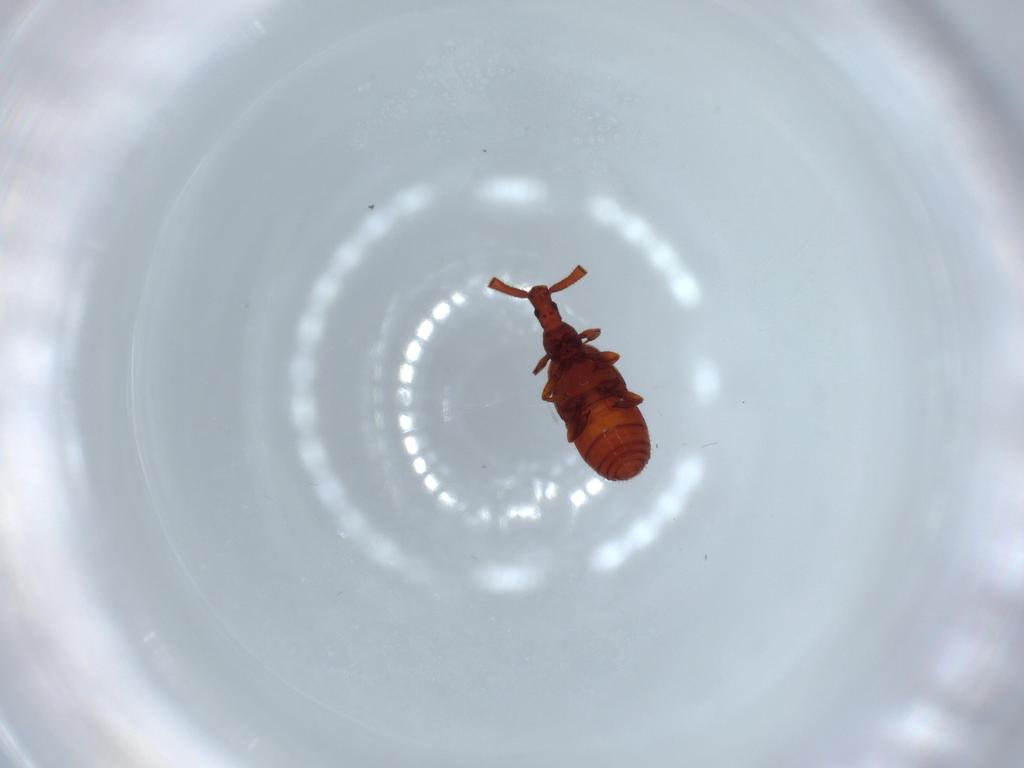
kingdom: Animalia
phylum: Arthropoda
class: Insecta
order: Coleoptera
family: Staphylinidae
